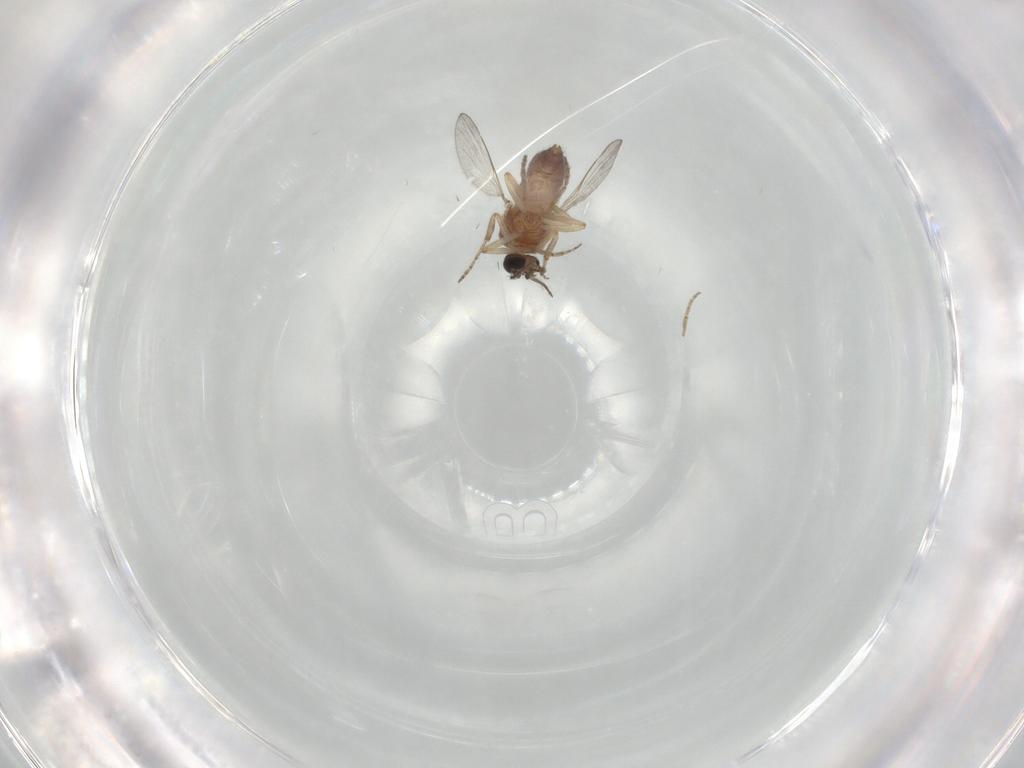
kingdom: Animalia
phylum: Arthropoda
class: Insecta
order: Diptera
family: Ceratopogonidae
